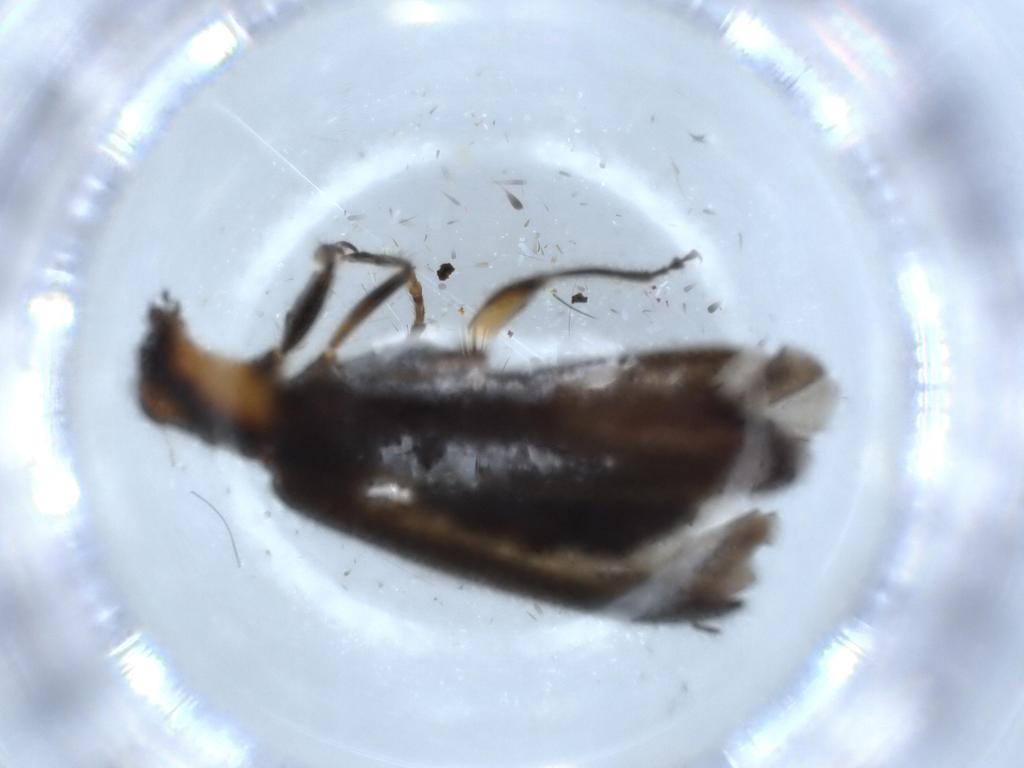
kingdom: Animalia
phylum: Arthropoda
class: Insecta
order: Coleoptera
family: Cleridae
